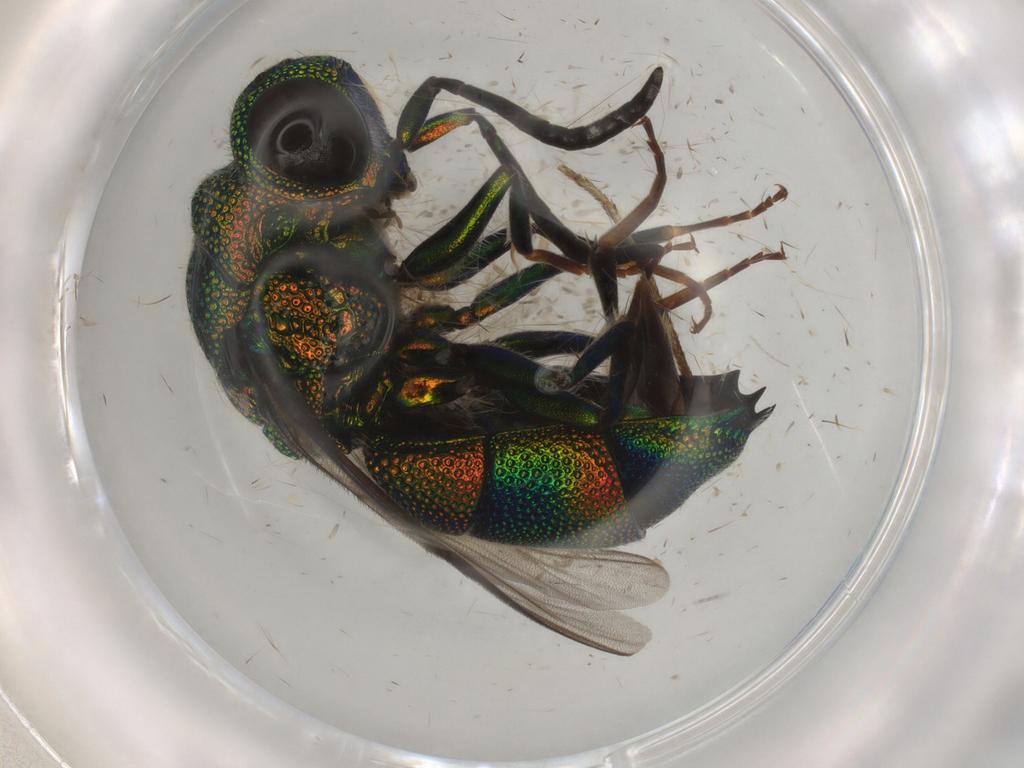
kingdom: Animalia
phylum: Arthropoda
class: Insecta
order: Hymenoptera
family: Chrysididae
